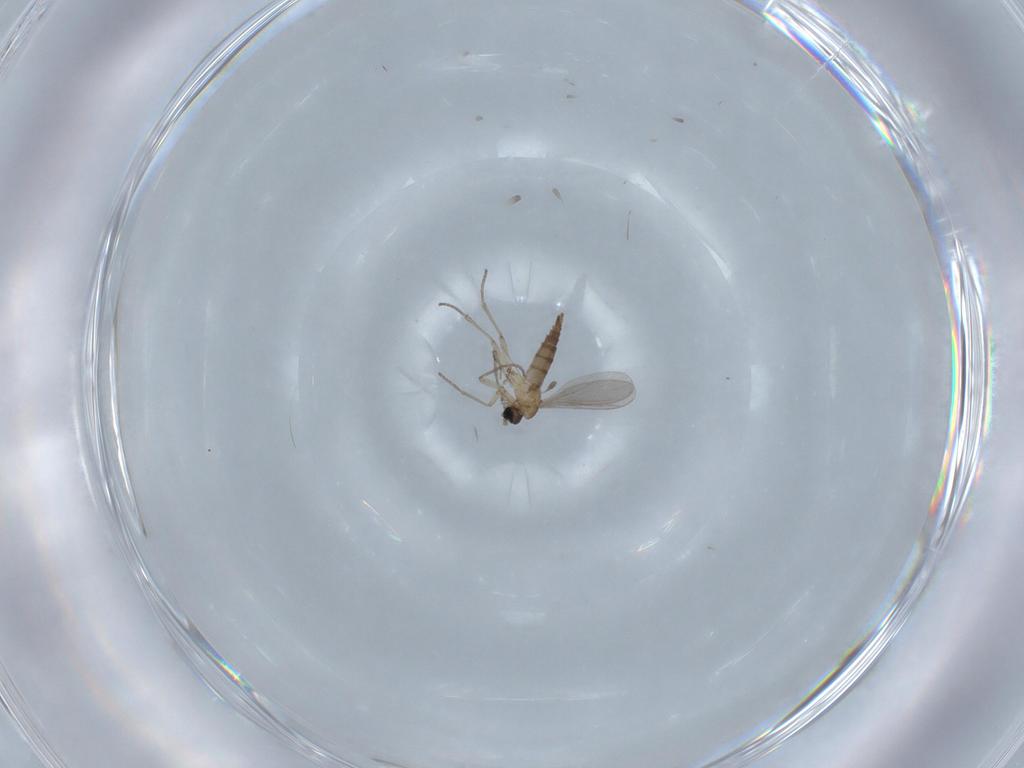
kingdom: Animalia
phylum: Arthropoda
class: Insecta
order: Diptera
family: Sciaridae
